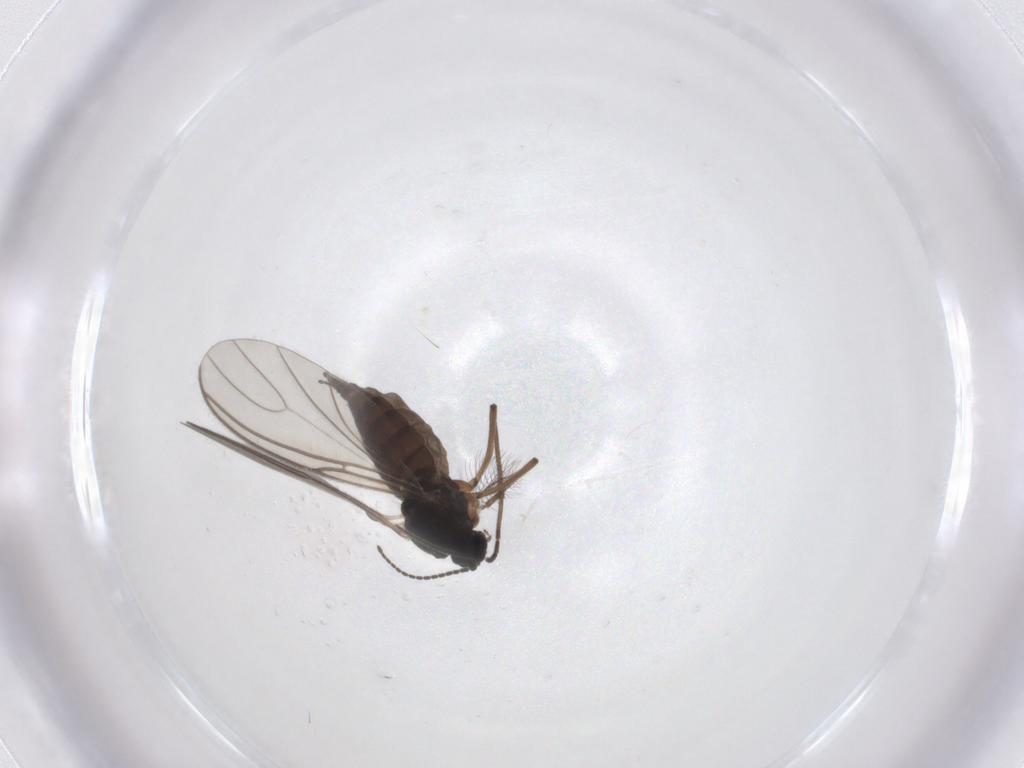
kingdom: Animalia
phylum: Arthropoda
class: Insecta
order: Diptera
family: Sciaridae
